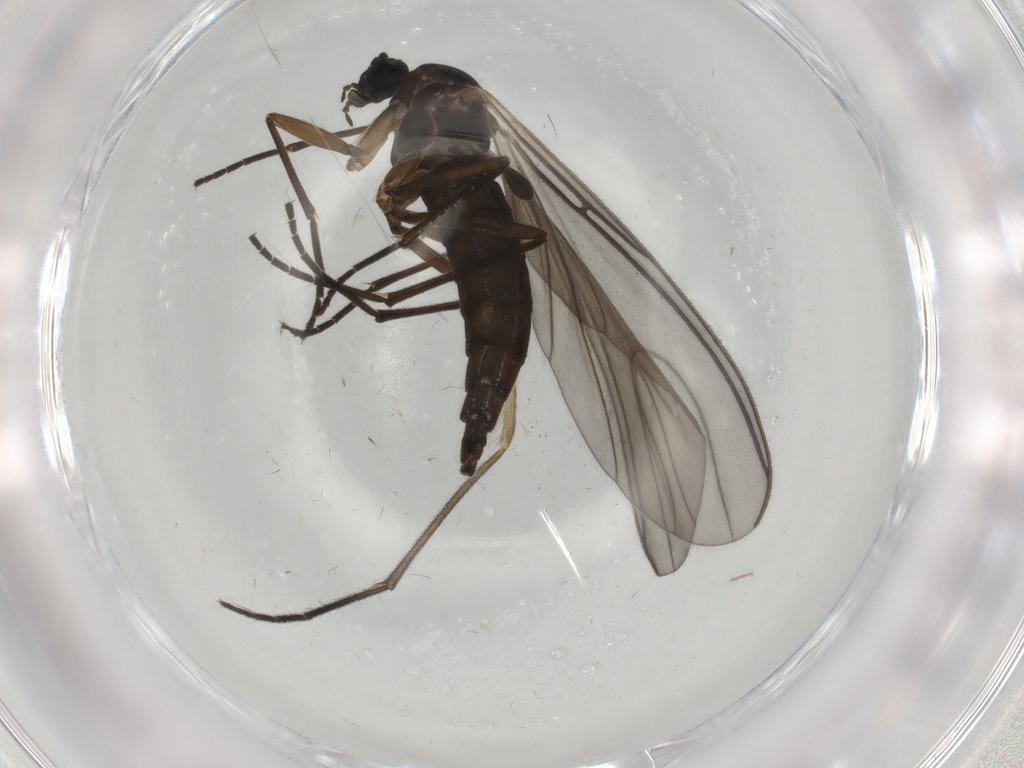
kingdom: Animalia
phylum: Arthropoda
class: Insecta
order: Diptera
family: Sciaridae
